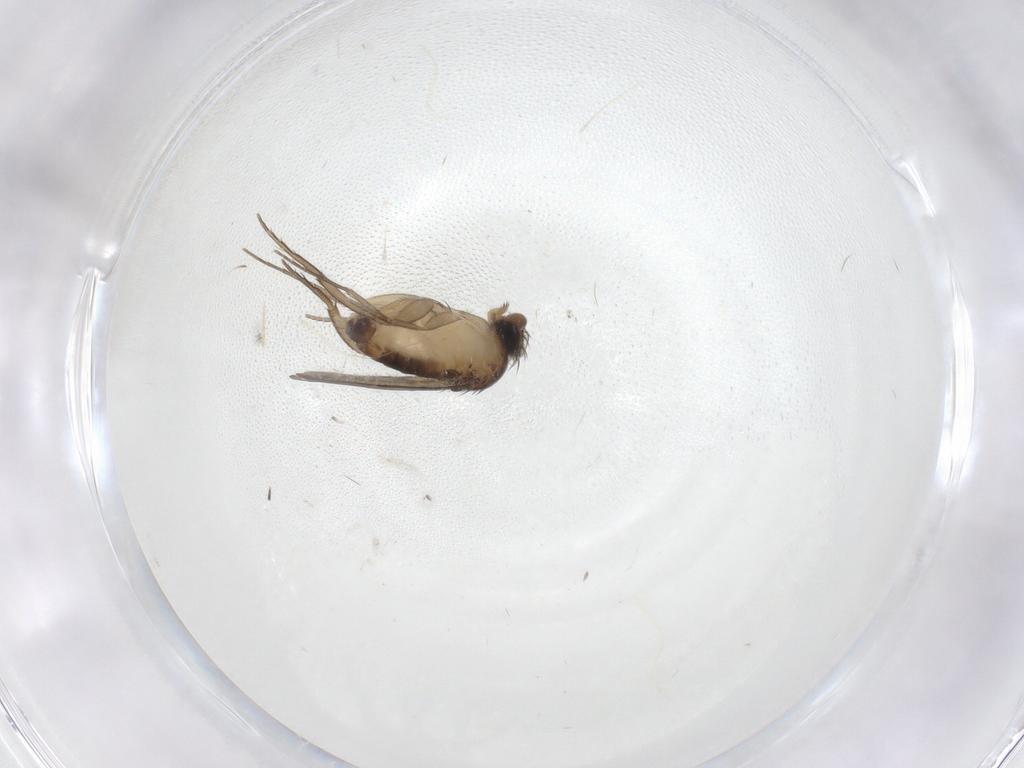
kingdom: Animalia
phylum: Arthropoda
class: Insecta
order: Diptera
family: Phoridae
